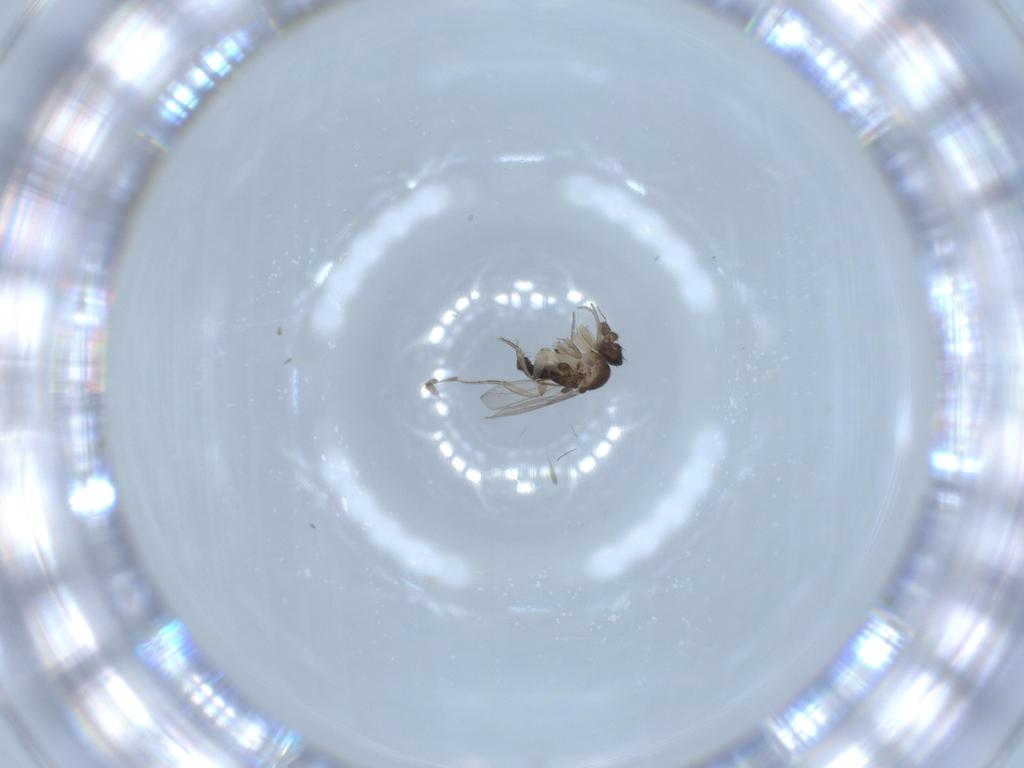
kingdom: Animalia
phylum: Arthropoda
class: Insecta
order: Diptera
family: Phoridae
